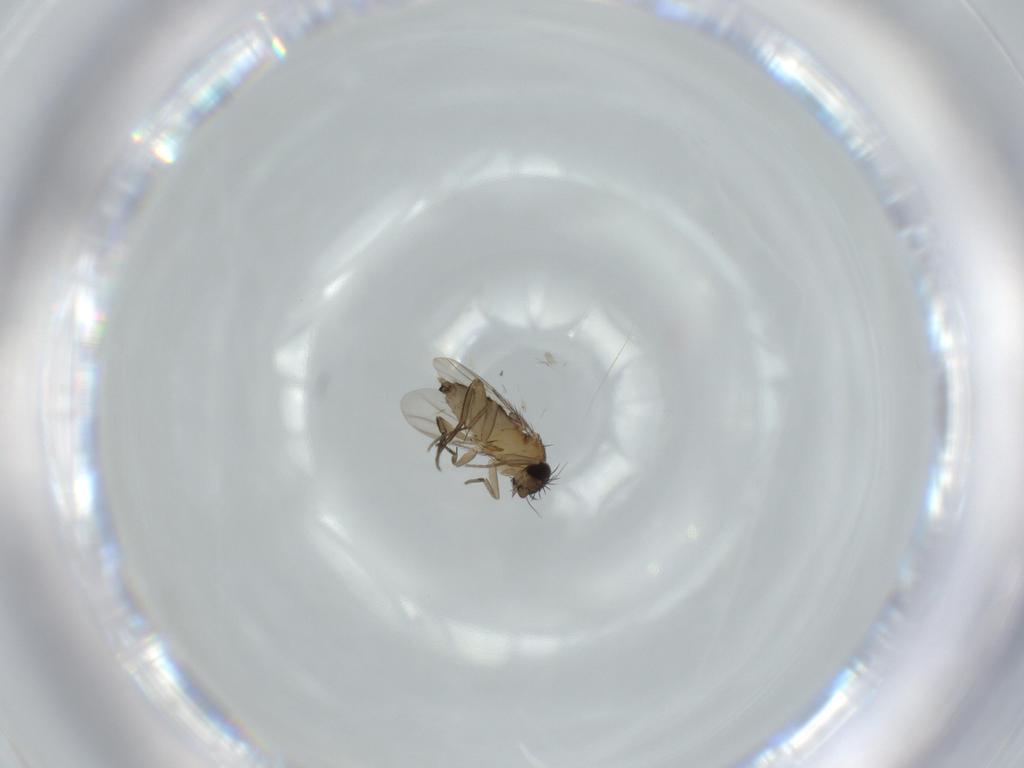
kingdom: Animalia
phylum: Arthropoda
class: Insecta
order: Diptera
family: Phoridae
